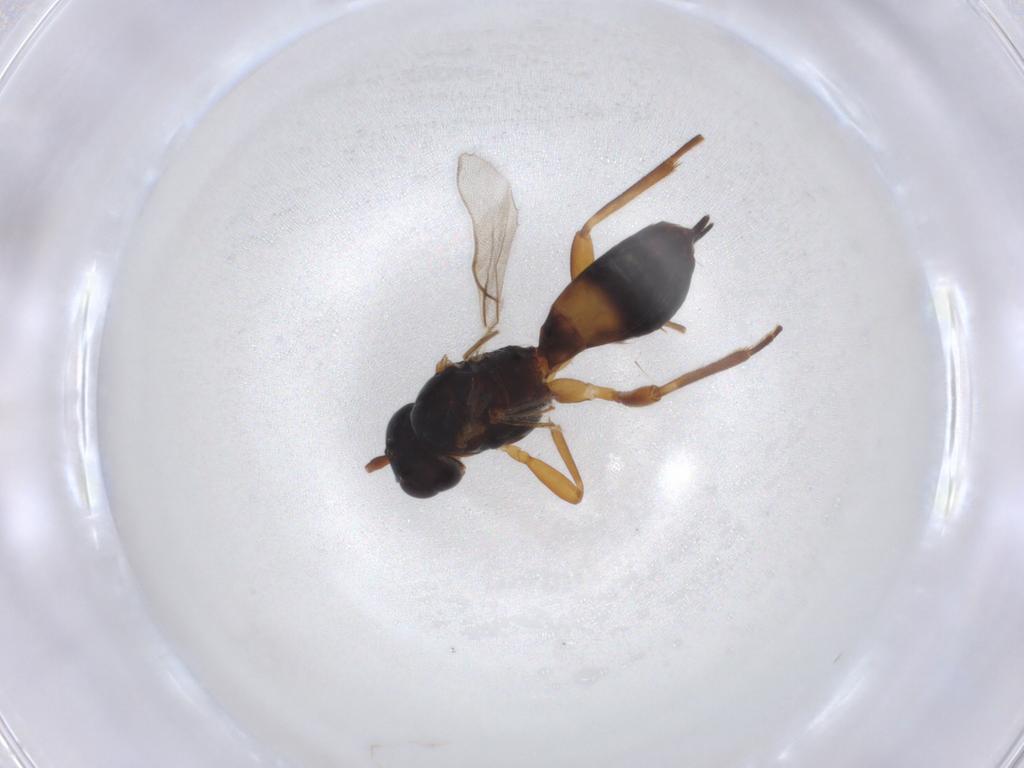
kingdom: Animalia
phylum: Arthropoda
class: Insecta
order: Hymenoptera
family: Braconidae
